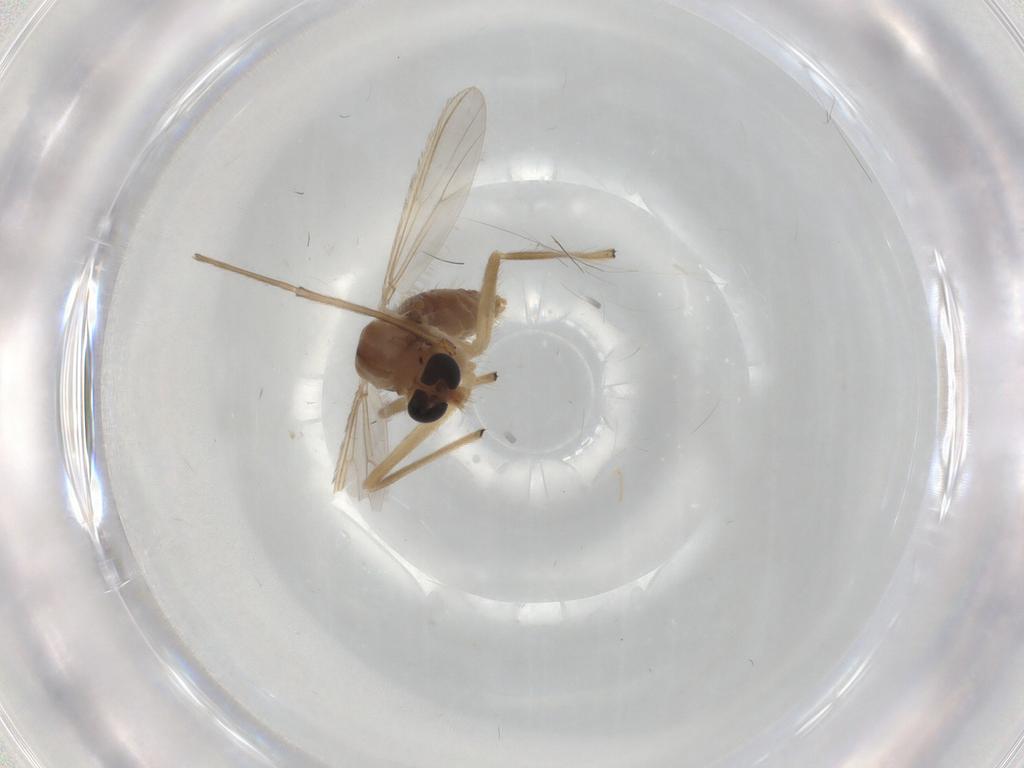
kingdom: Animalia
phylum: Arthropoda
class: Insecta
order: Diptera
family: Chironomidae
